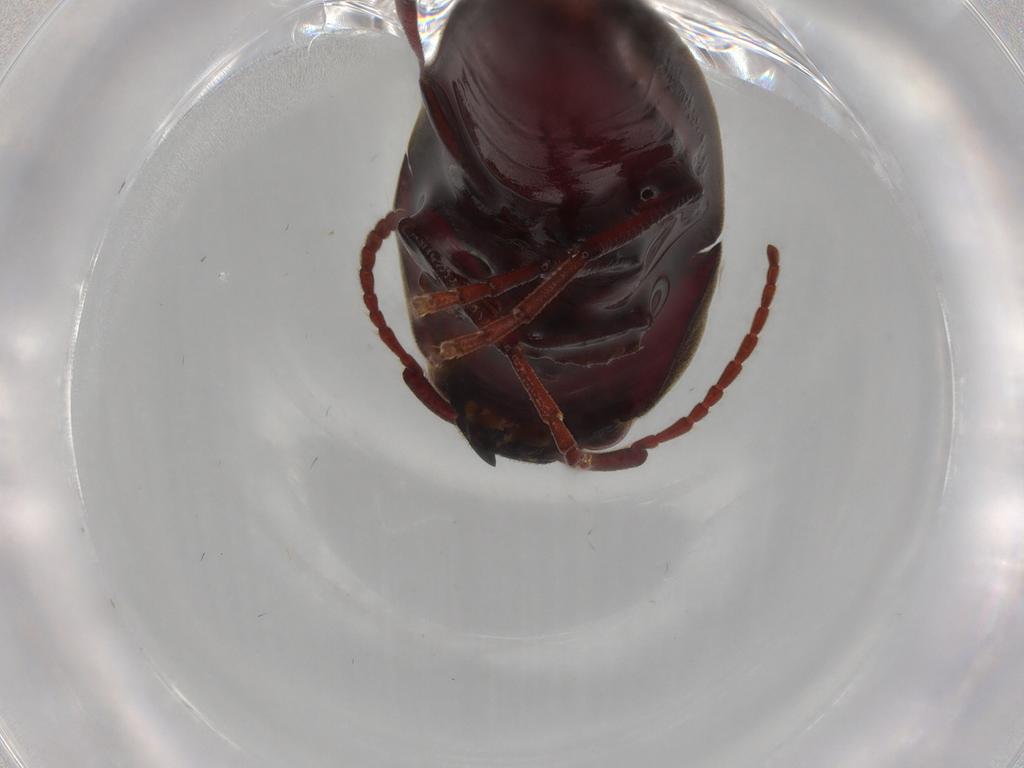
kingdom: Animalia
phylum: Arthropoda
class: Insecta
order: Coleoptera
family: Eucnemidae
